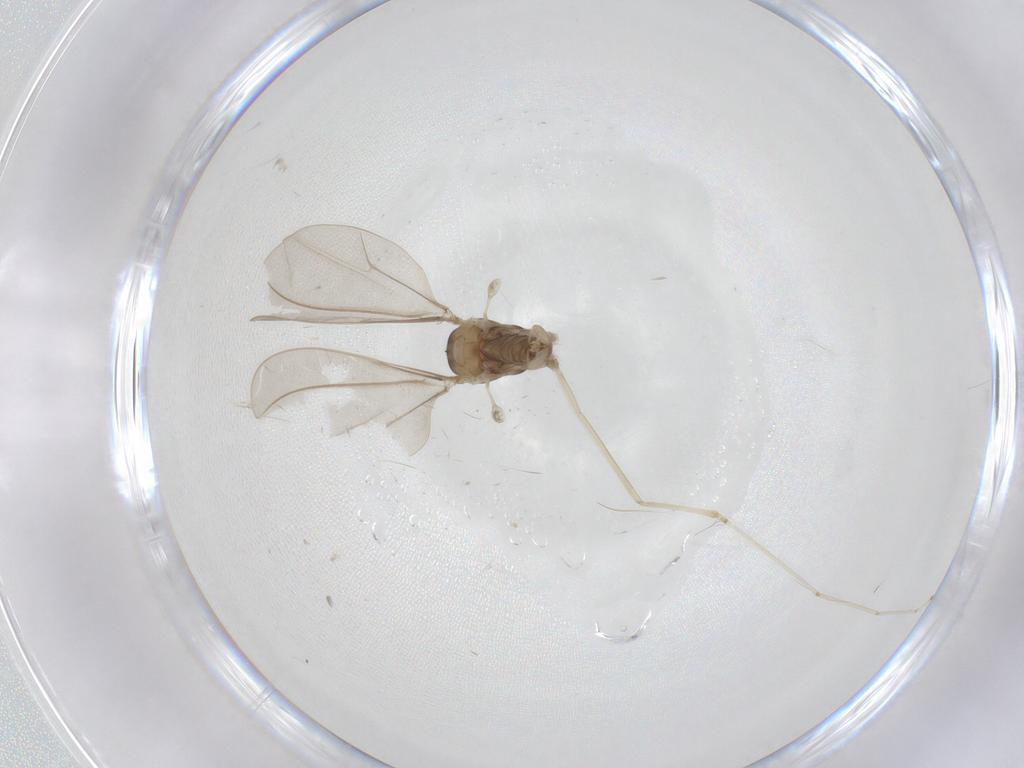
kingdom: Animalia
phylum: Arthropoda
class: Insecta
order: Diptera
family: Cecidomyiidae
